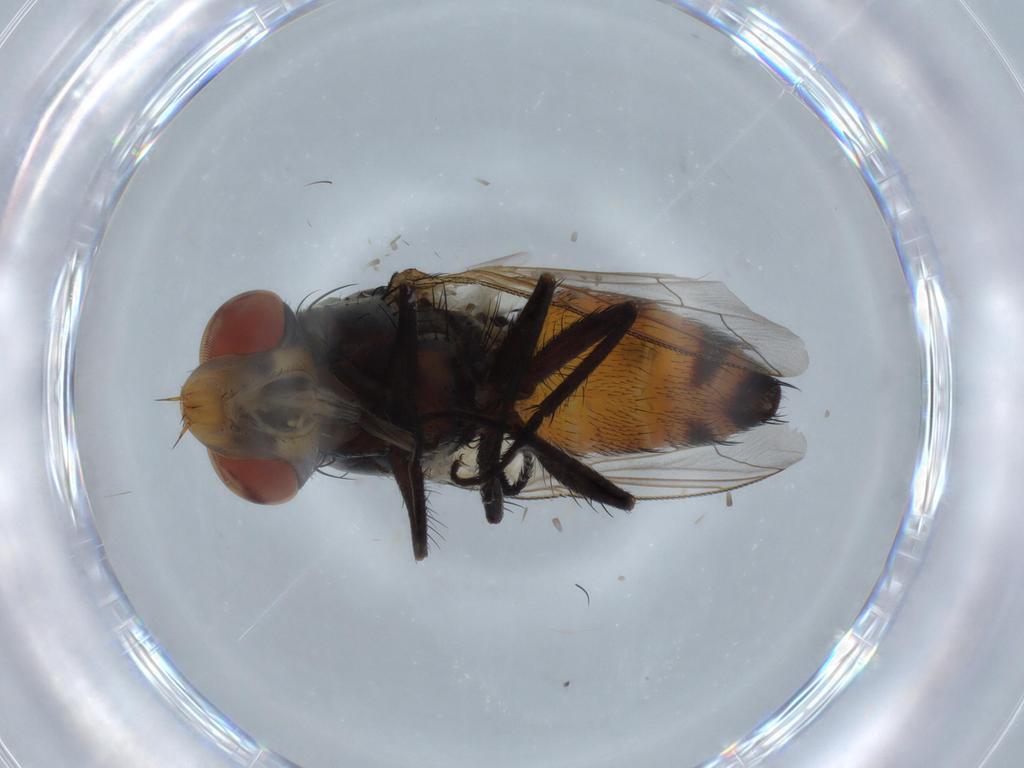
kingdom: Animalia
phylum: Arthropoda
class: Insecta
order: Diptera
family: Sarcophagidae
